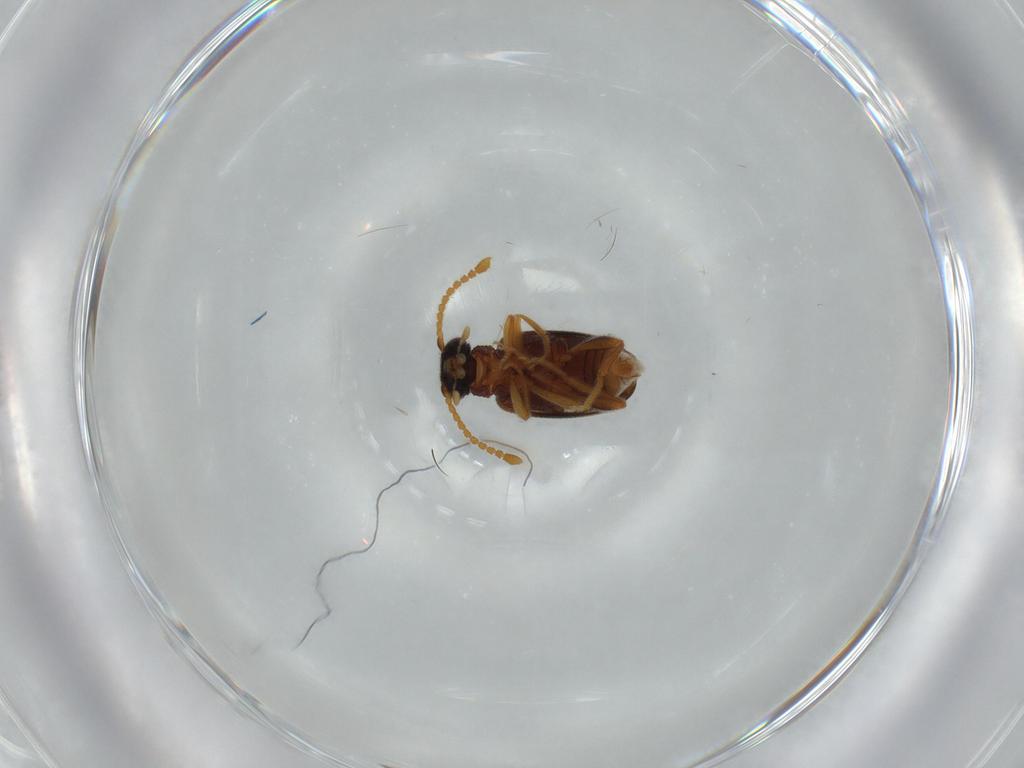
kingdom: Animalia
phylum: Arthropoda
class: Insecta
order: Coleoptera
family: Aderidae
